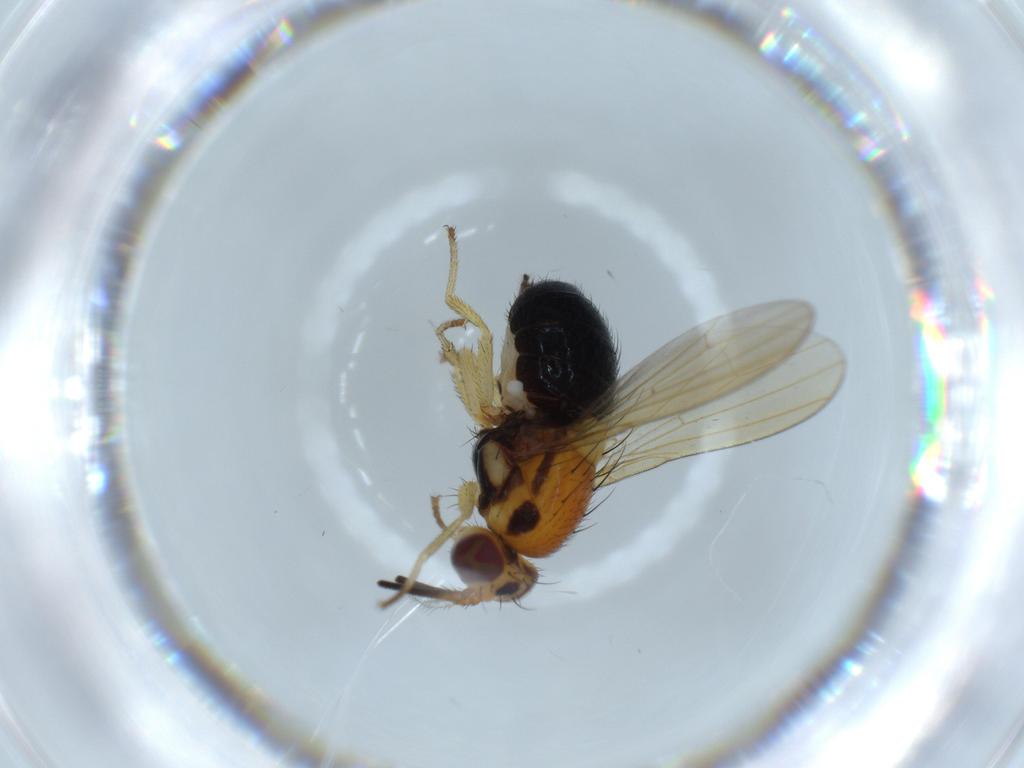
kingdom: Animalia
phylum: Arthropoda
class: Insecta
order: Diptera
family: Lauxaniidae
